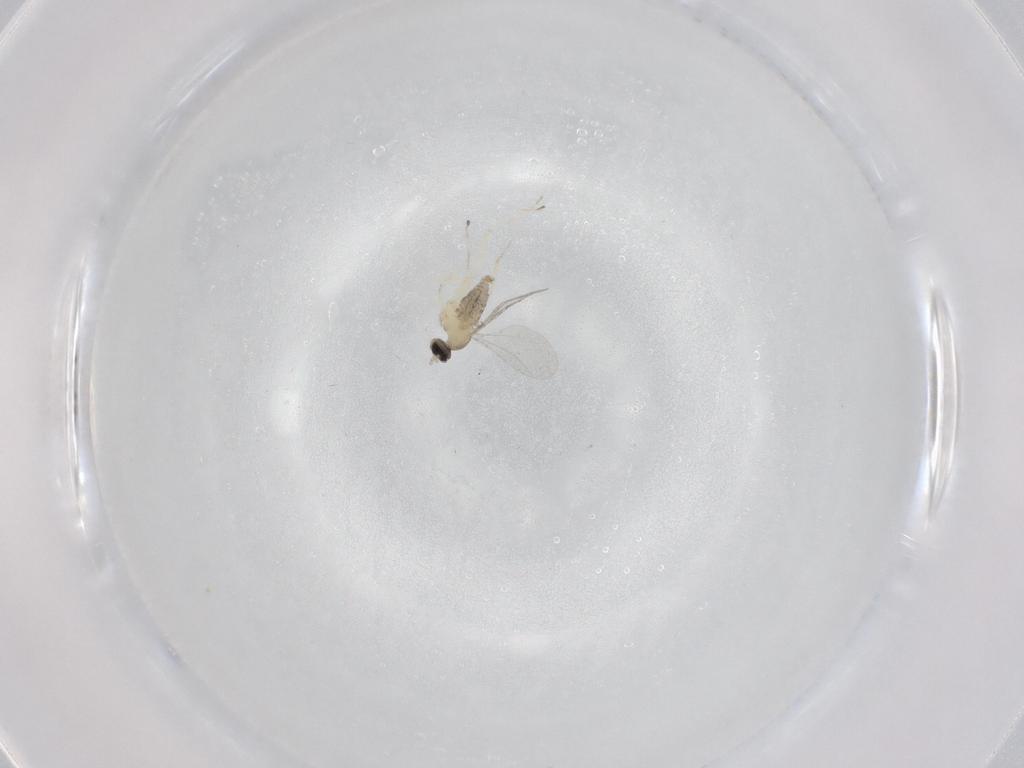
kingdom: Animalia
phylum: Arthropoda
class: Insecta
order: Diptera
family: Cecidomyiidae
